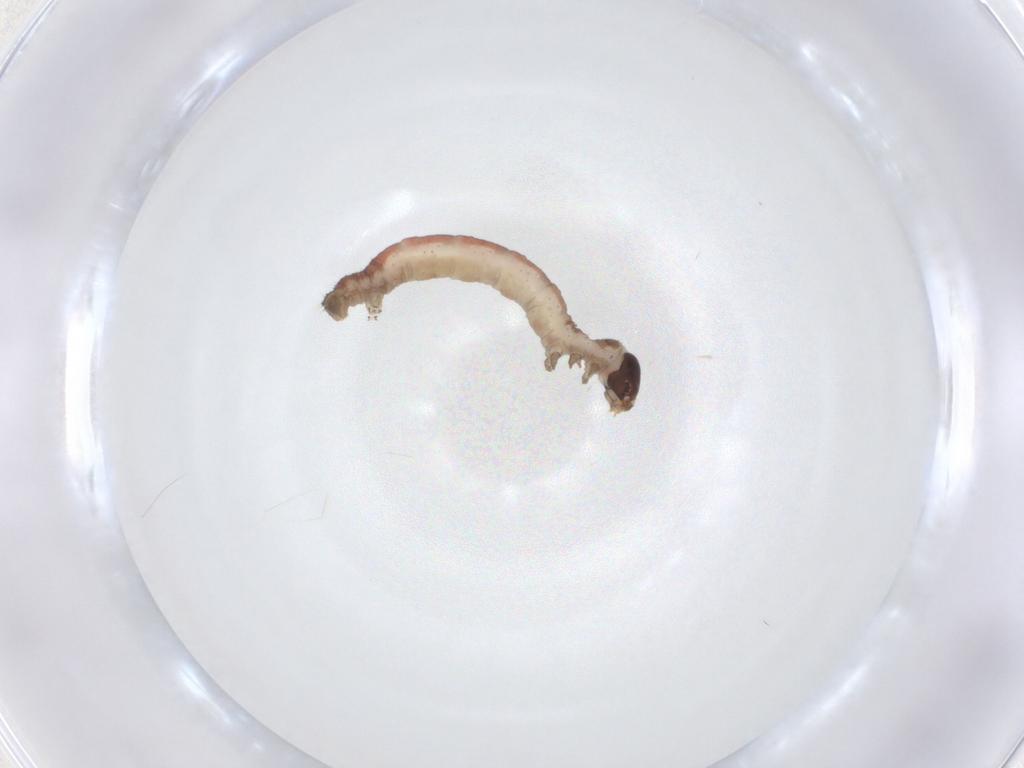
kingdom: Animalia
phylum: Arthropoda
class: Insecta
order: Lepidoptera
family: Geometridae
